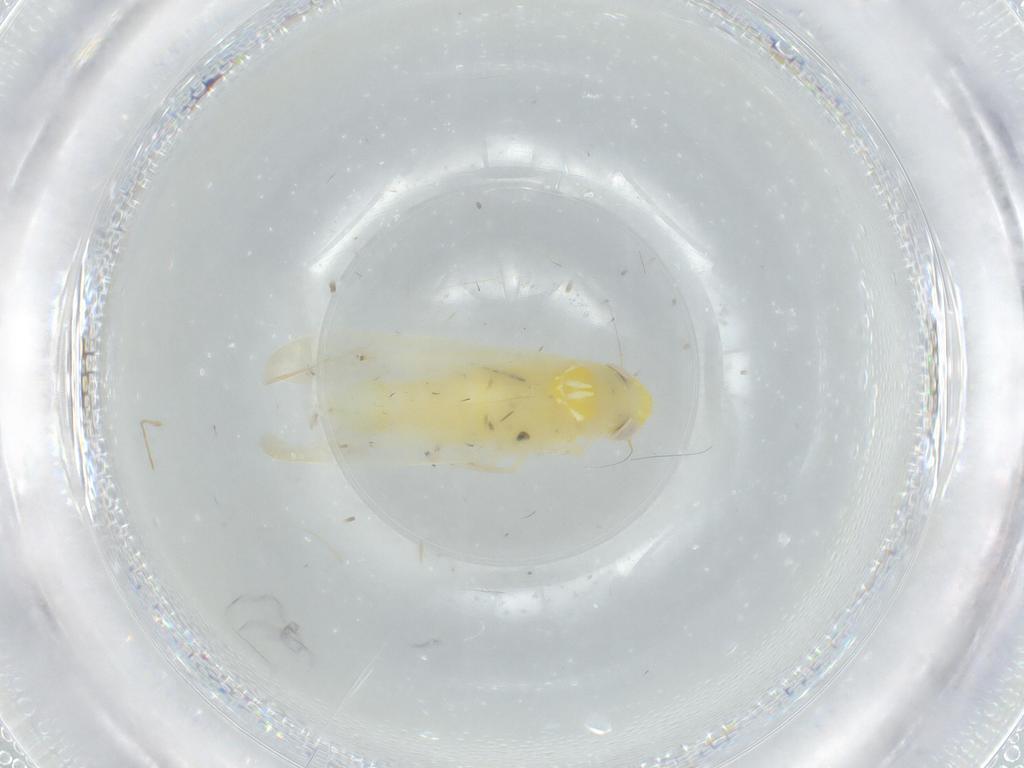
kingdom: Animalia
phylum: Arthropoda
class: Insecta
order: Hemiptera
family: Cicadellidae
